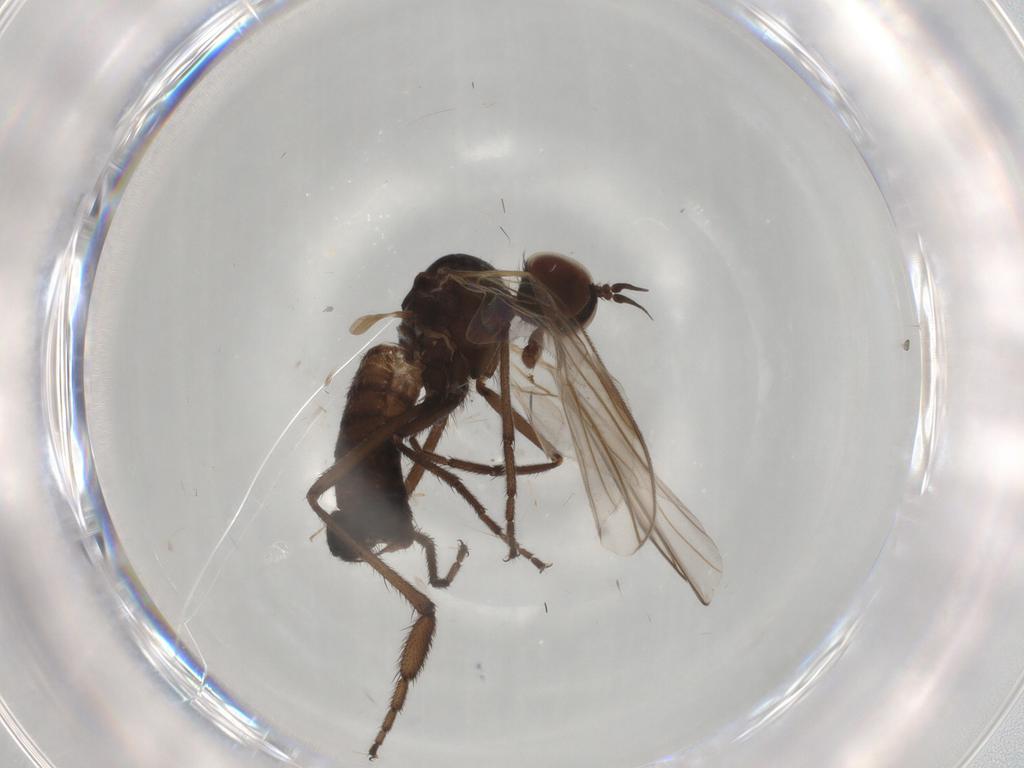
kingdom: Animalia
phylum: Arthropoda
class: Insecta
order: Diptera
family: Empididae
